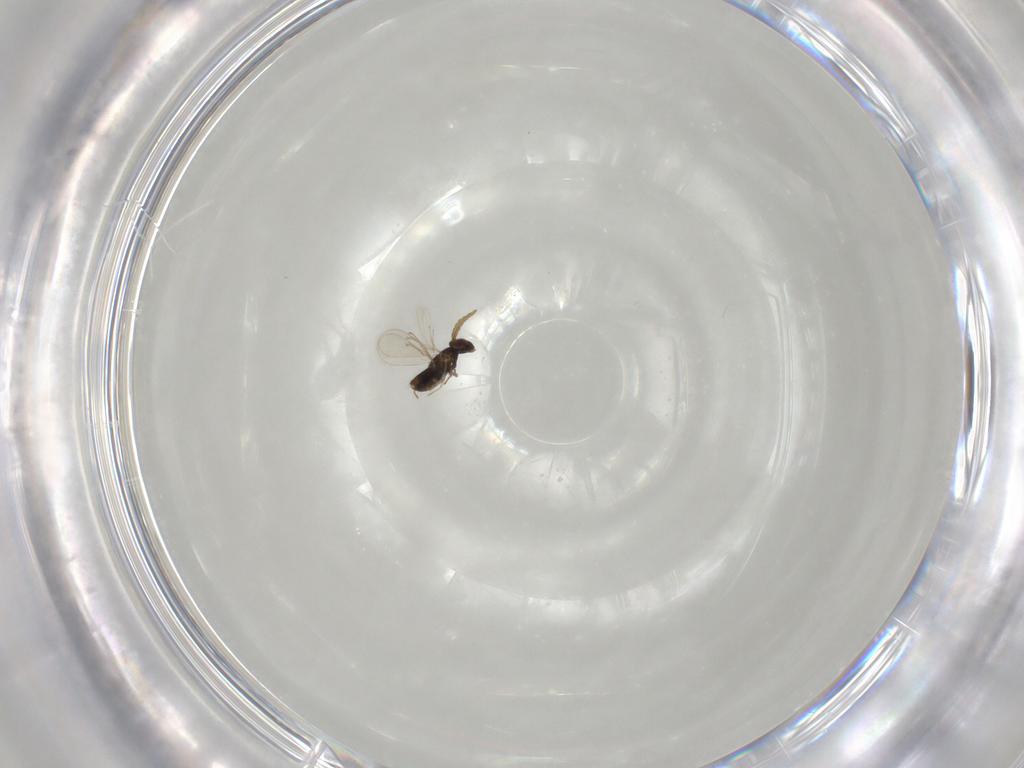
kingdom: Animalia
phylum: Arthropoda
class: Insecta
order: Hymenoptera
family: Aphelinidae
